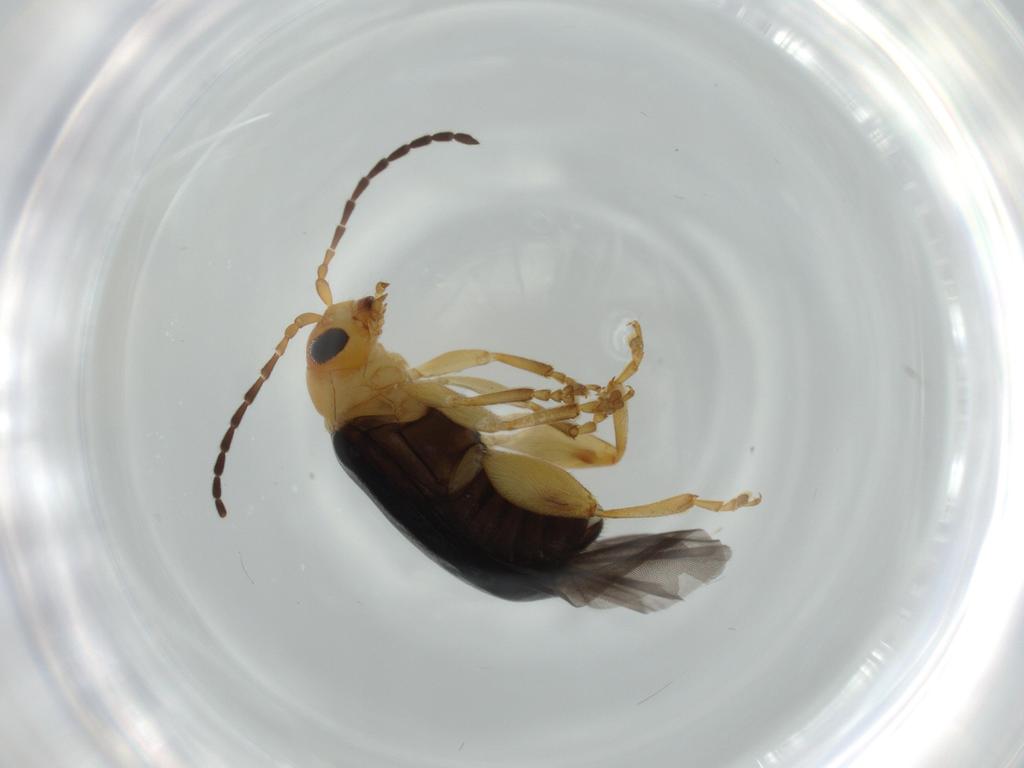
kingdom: Animalia
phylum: Arthropoda
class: Insecta
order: Coleoptera
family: Chrysomelidae
